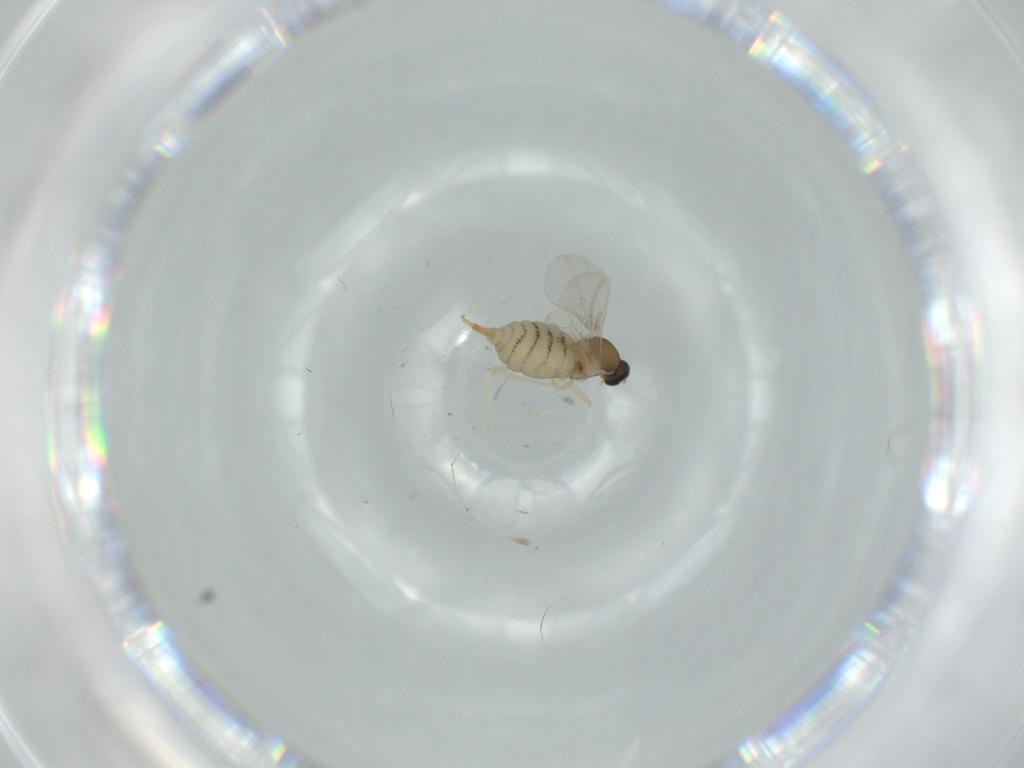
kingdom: Animalia
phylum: Arthropoda
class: Insecta
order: Diptera
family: Cecidomyiidae
